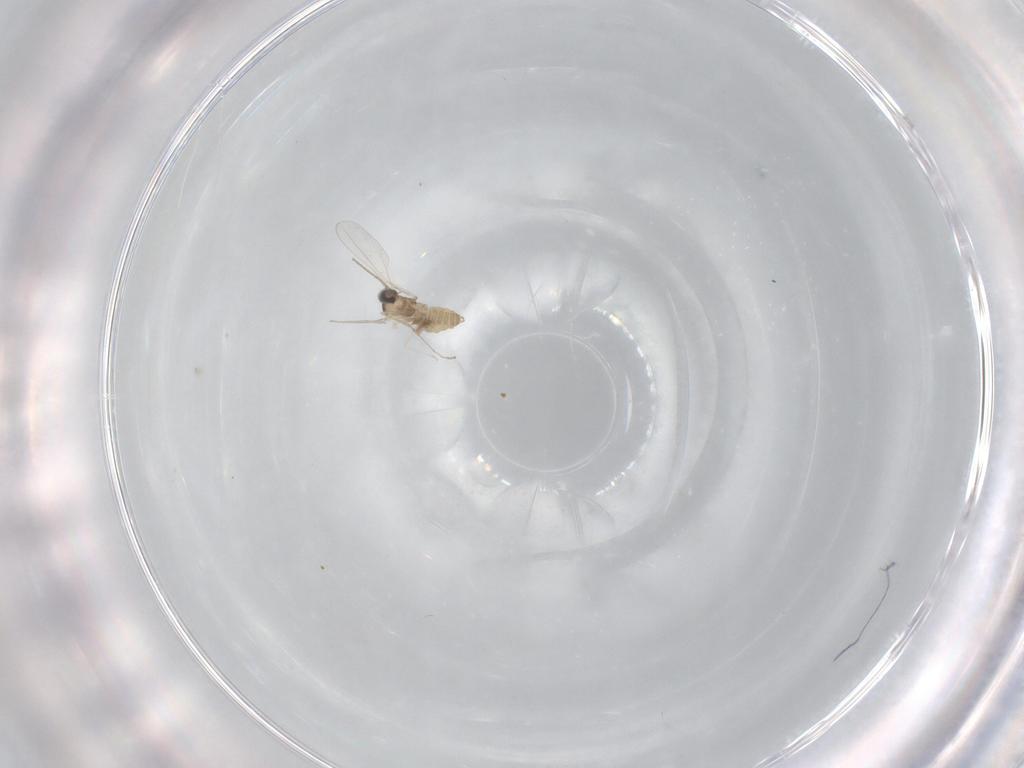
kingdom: Animalia
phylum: Arthropoda
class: Insecta
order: Diptera
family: Cecidomyiidae
